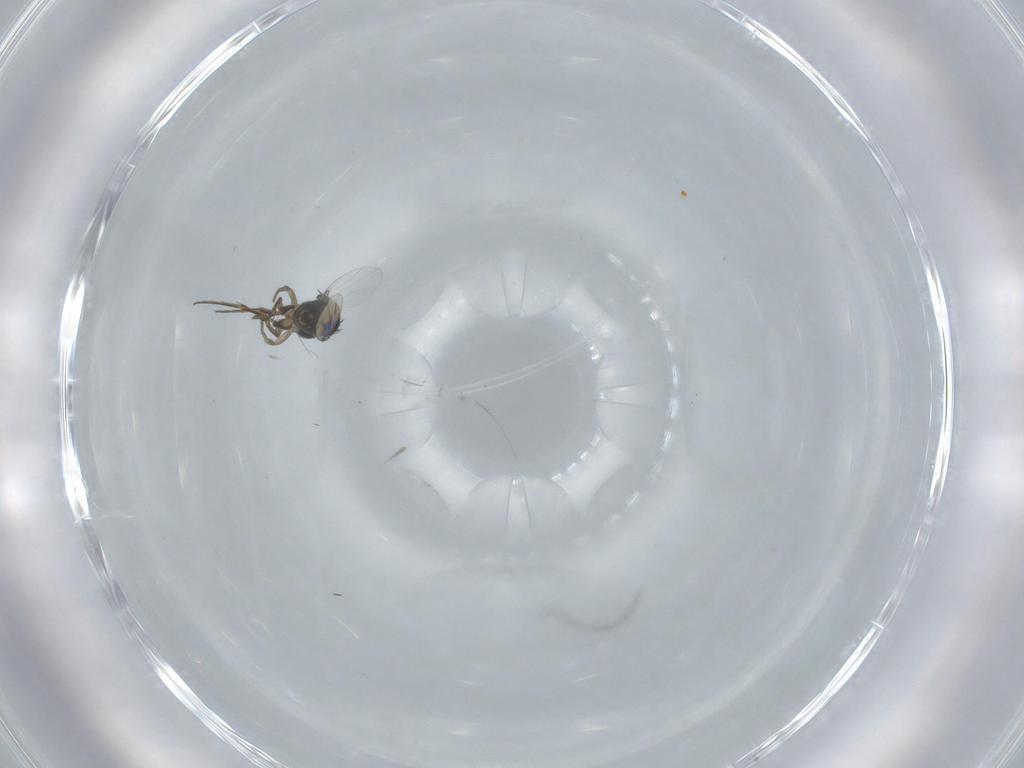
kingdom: Animalia
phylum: Arthropoda
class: Insecta
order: Diptera
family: Phoridae
